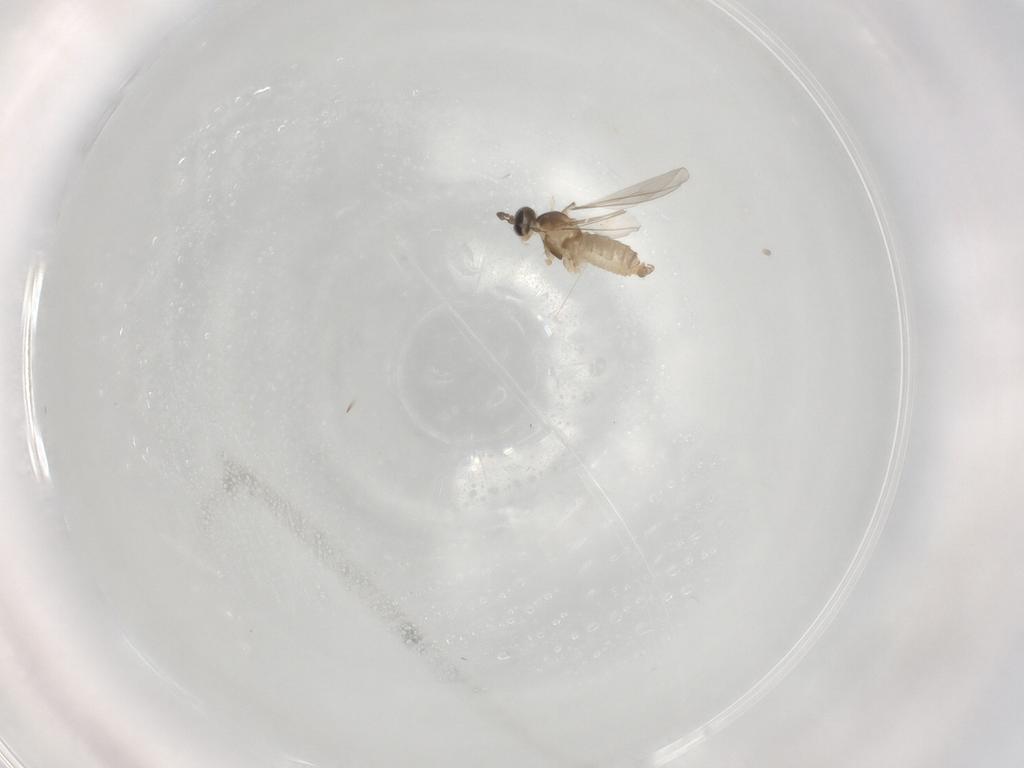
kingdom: Animalia
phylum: Arthropoda
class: Insecta
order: Diptera
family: Cecidomyiidae
